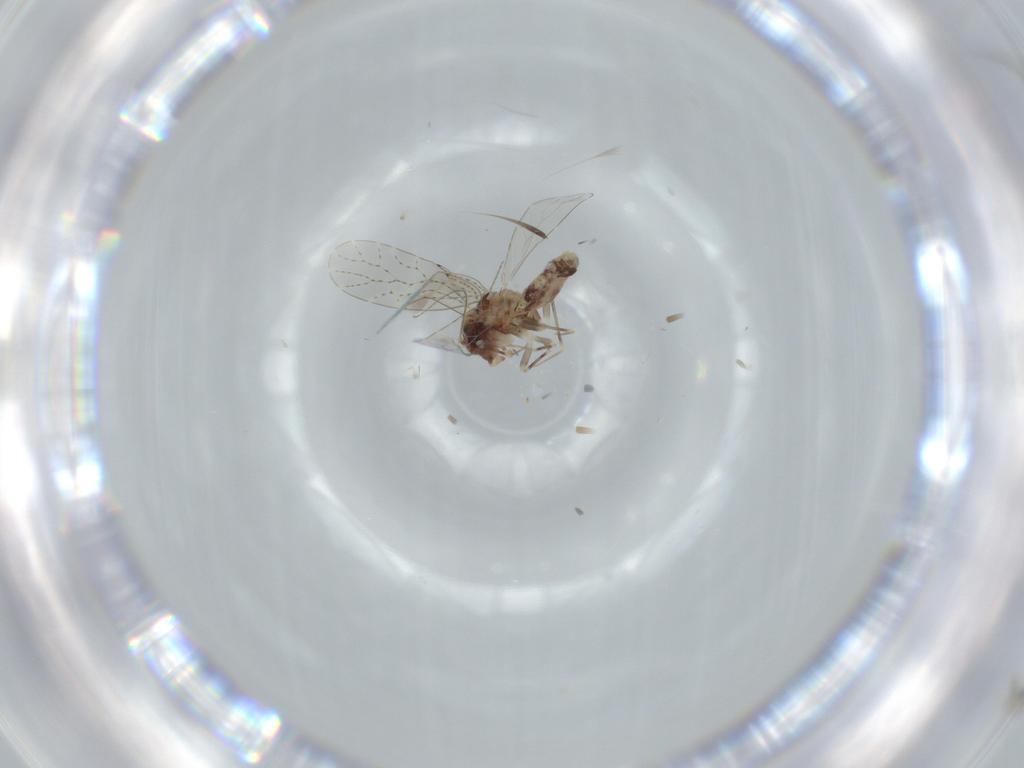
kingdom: Animalia
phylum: Arthropoda
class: Insecta
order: Psocodea
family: Musapsocidae
